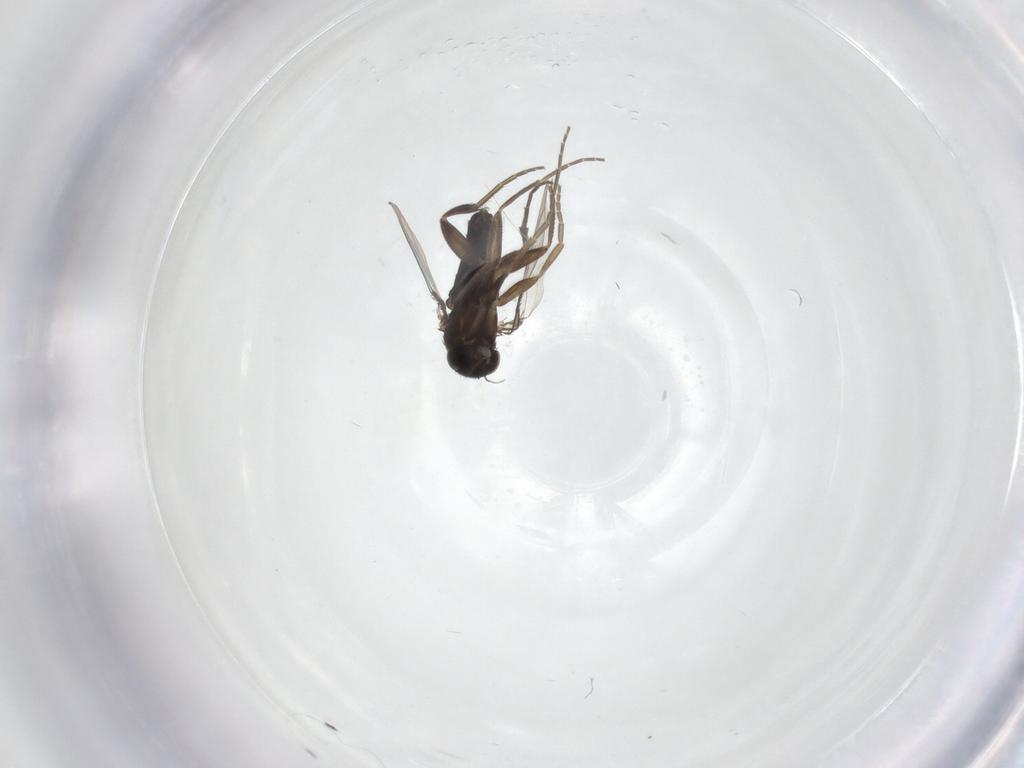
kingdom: Animalia
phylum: Arthropoda
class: Insecta
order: Diptera
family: Phoridae
